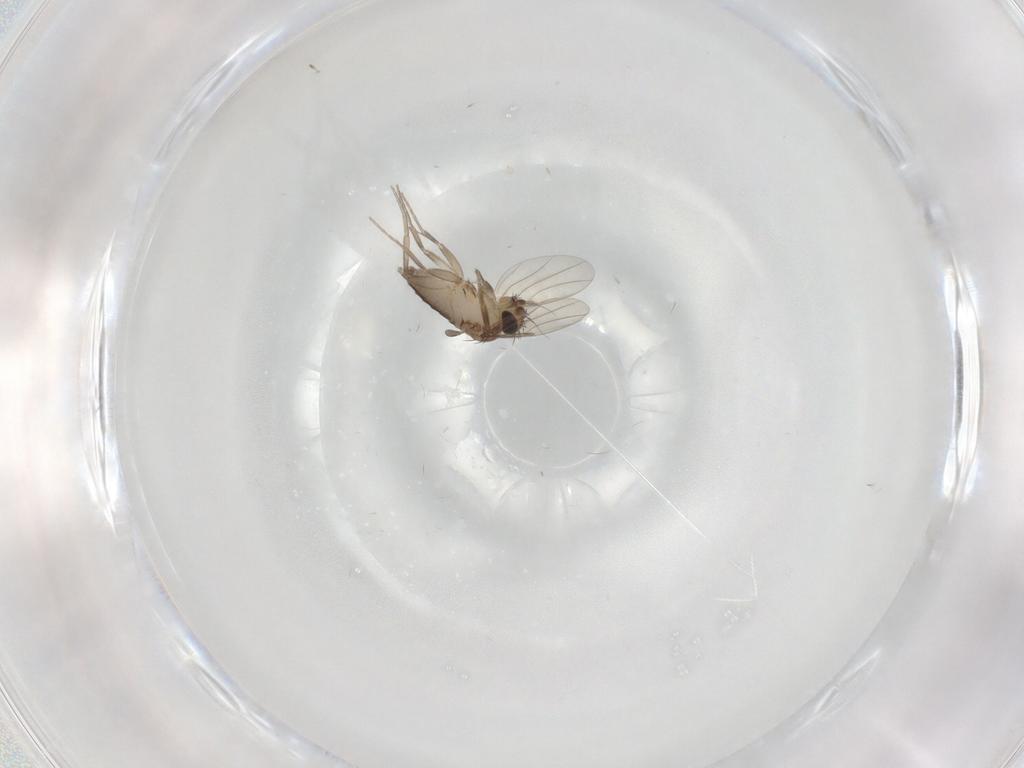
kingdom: Animalia
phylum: Arthropoda
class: Insecta
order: Diptera
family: Phoridae
